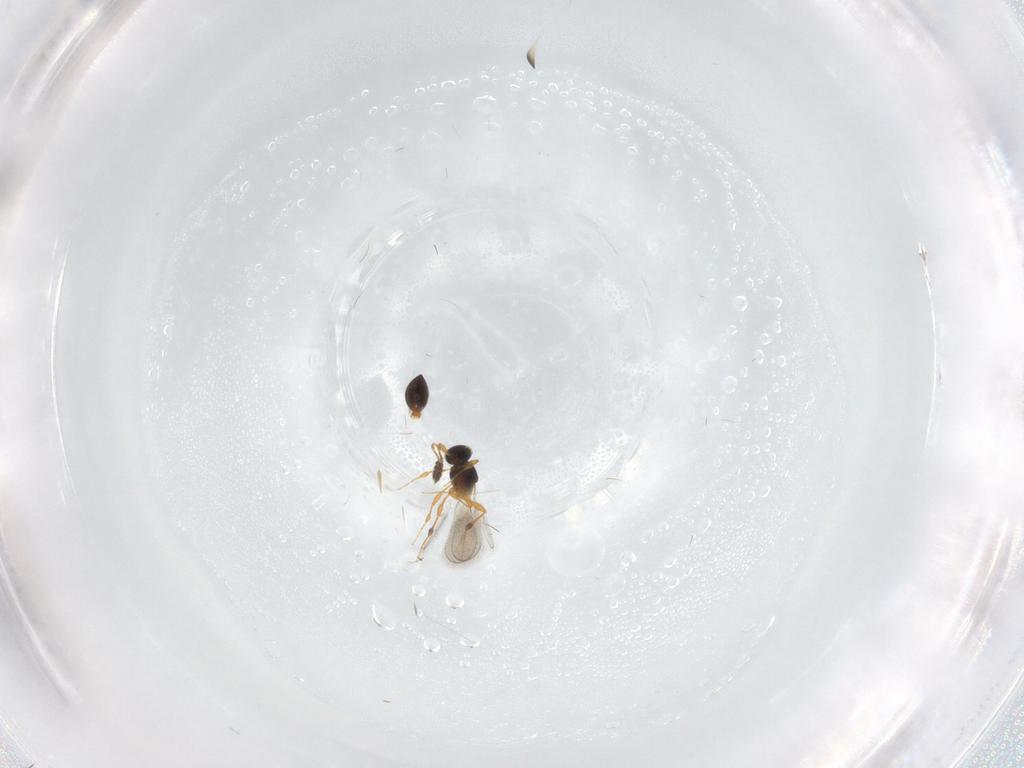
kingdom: Animalia
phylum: Arthropoda
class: Insecta
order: Hymenoptera
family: Platygastridae
